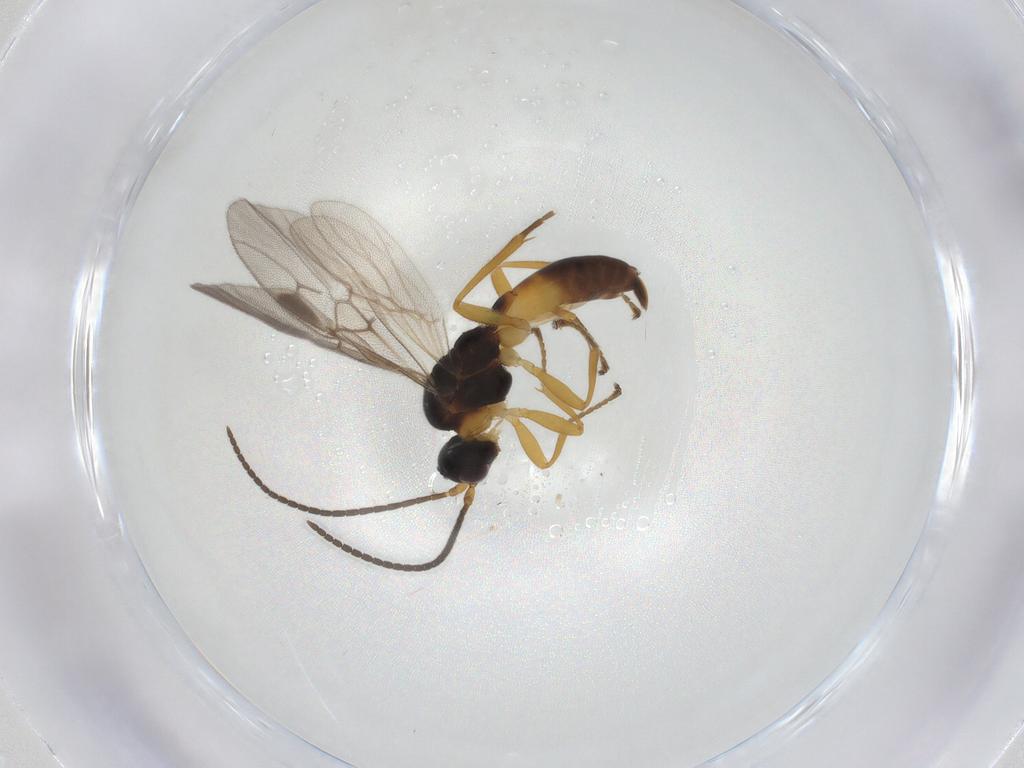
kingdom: Animalia
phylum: Arthropoda
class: Insecta
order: Hymenoptera
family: Braconidae
